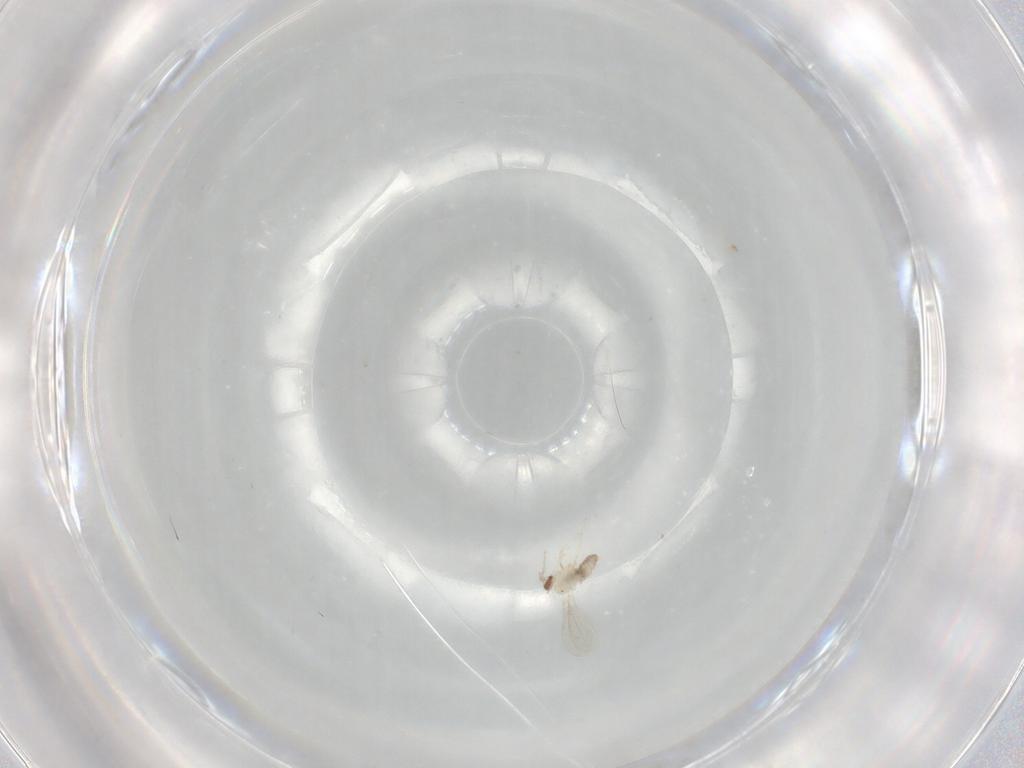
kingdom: Animalia
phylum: Arthropoda
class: Insecta
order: Diptera
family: Cecidomyiidae
